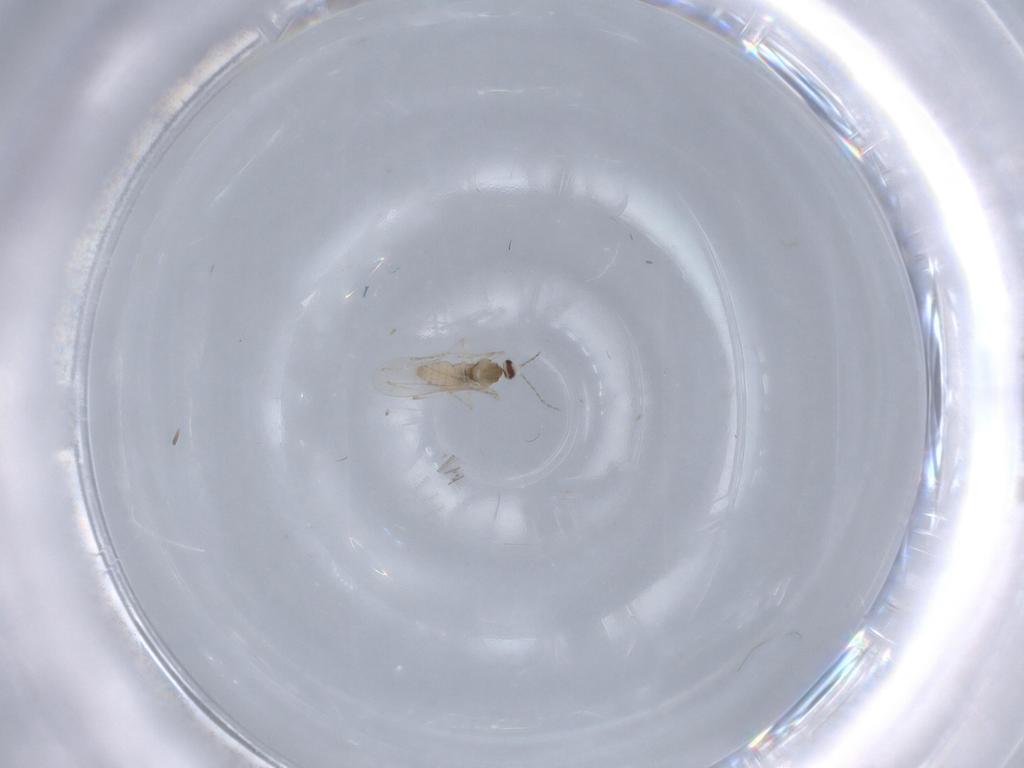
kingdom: Animalia
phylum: Arthropoda
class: Insecta
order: Diptera
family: Cecidomyiidae
